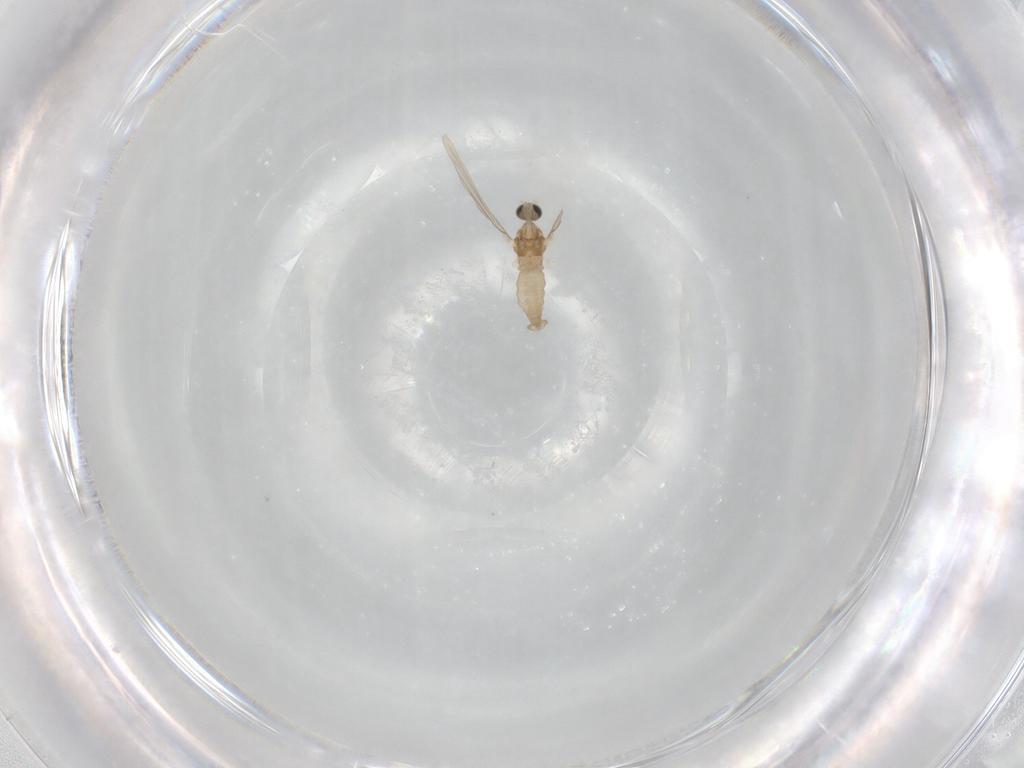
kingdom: Animalia
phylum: Arthropoda
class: Insecta
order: Diptera
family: Cecidomyiidae
